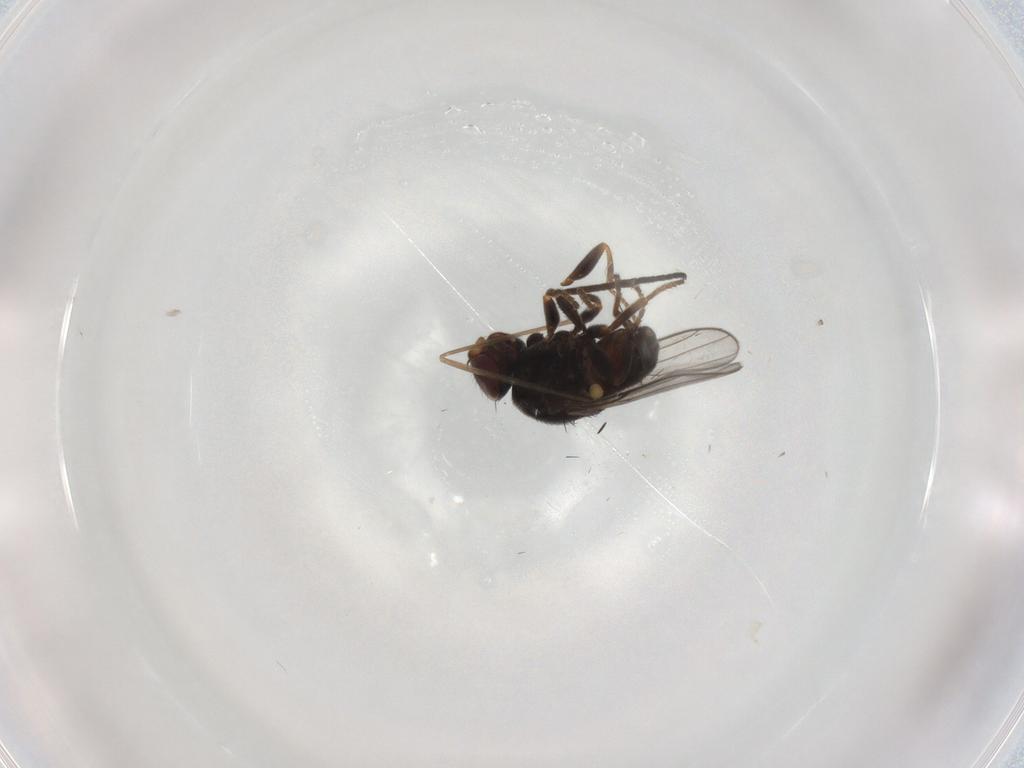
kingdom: Animalia
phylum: Arthropoda
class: Insecta
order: Diptera
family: Chloropidae
